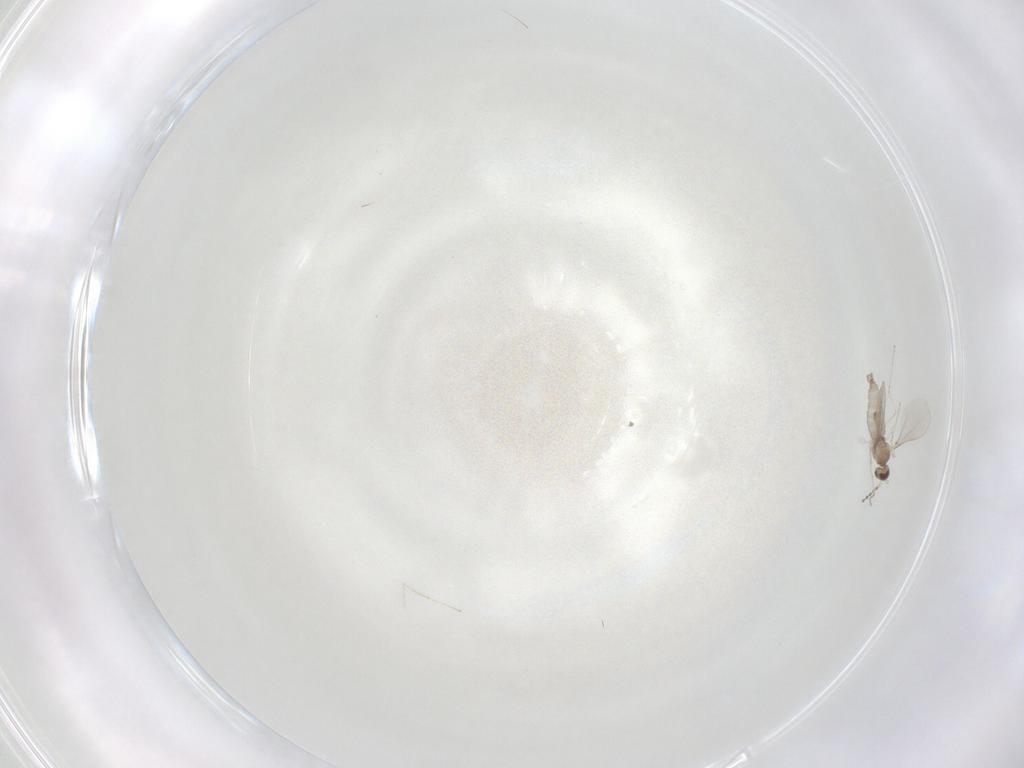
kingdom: Animalia
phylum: Arthropoda
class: Insecta
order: Diptera
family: Cecidomyiidae
